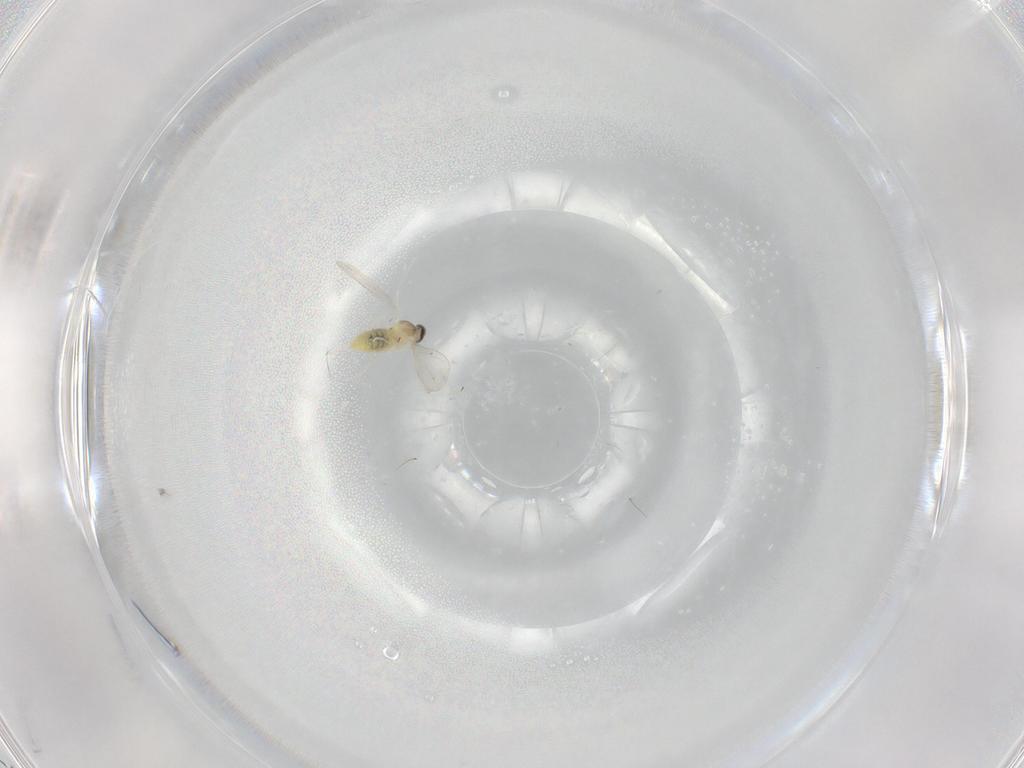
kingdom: Animalia
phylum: Arthropoda
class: Insecta
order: Diptera
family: Cecidomyiidae
